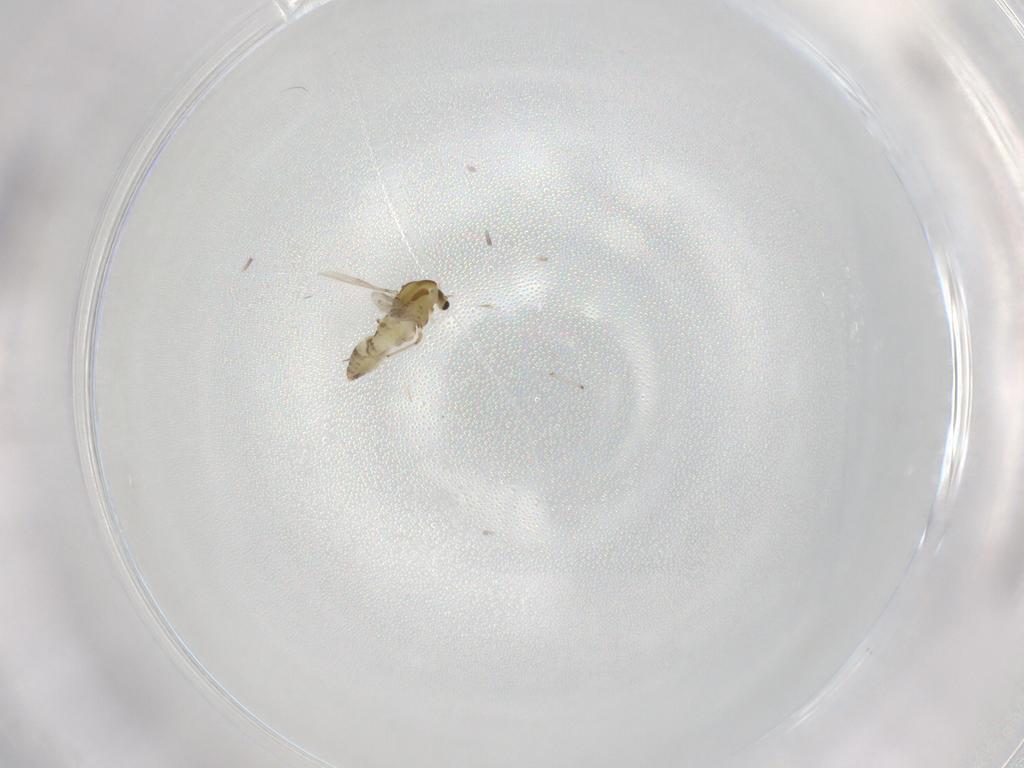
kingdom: Animalia
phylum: Arthropoda
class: Insecta
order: Diptera
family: Chironomidae
